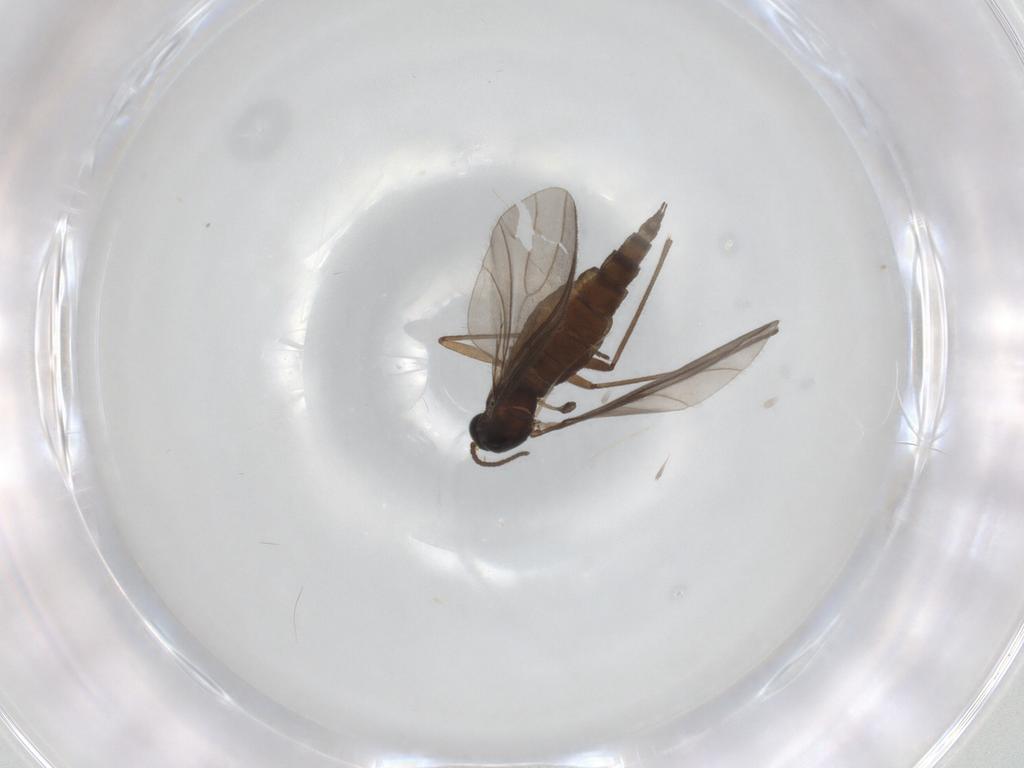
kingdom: Animalia
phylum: Arthropoda
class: Insecta
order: Diptera
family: Sciaridae
